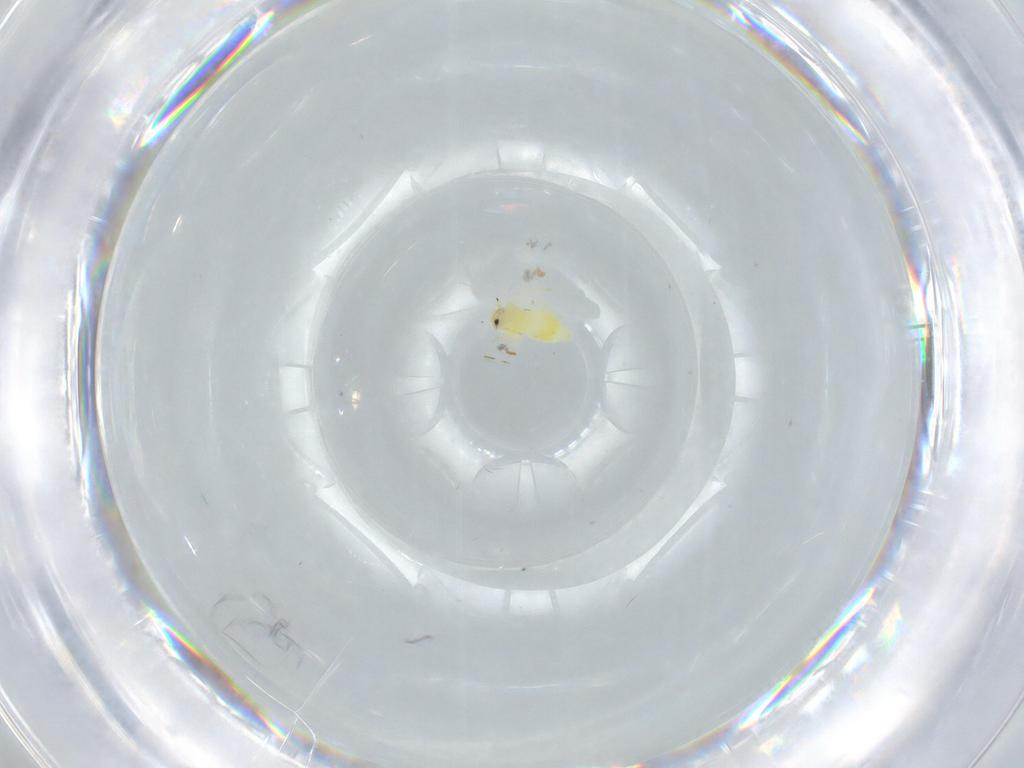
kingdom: Animalia
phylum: Arthropoda
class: Insecta
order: Hemiptera
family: Aleyrodidae
